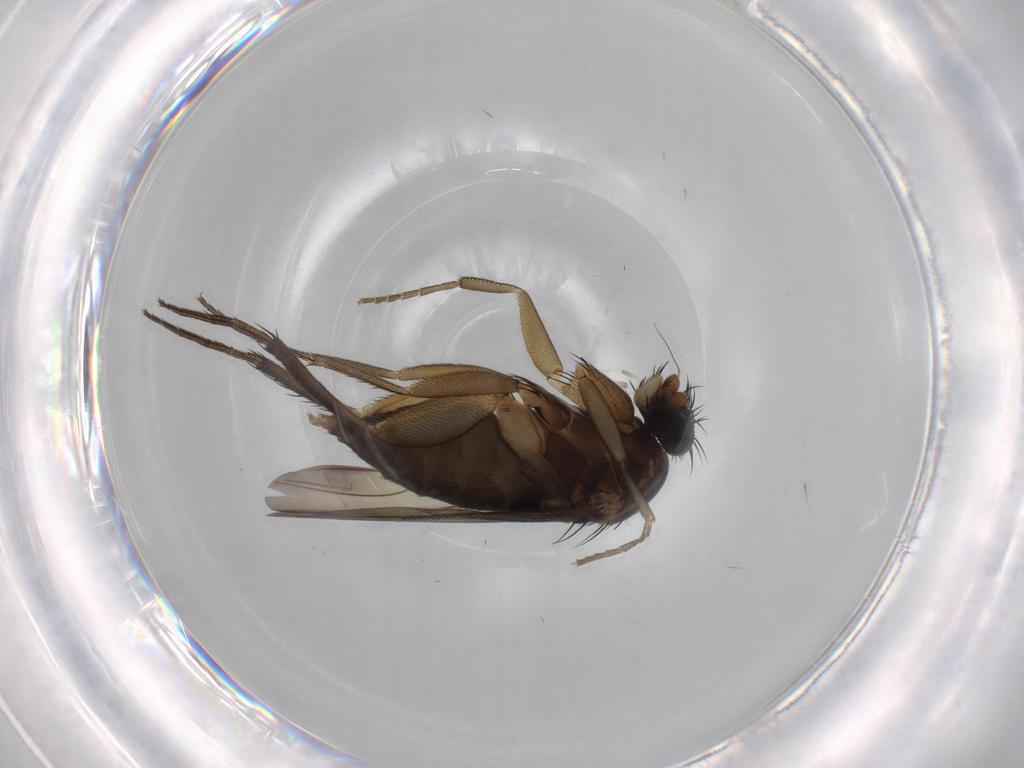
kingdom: Animalia
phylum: Arthropoda
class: Insecta
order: Diptera
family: Phoridae
